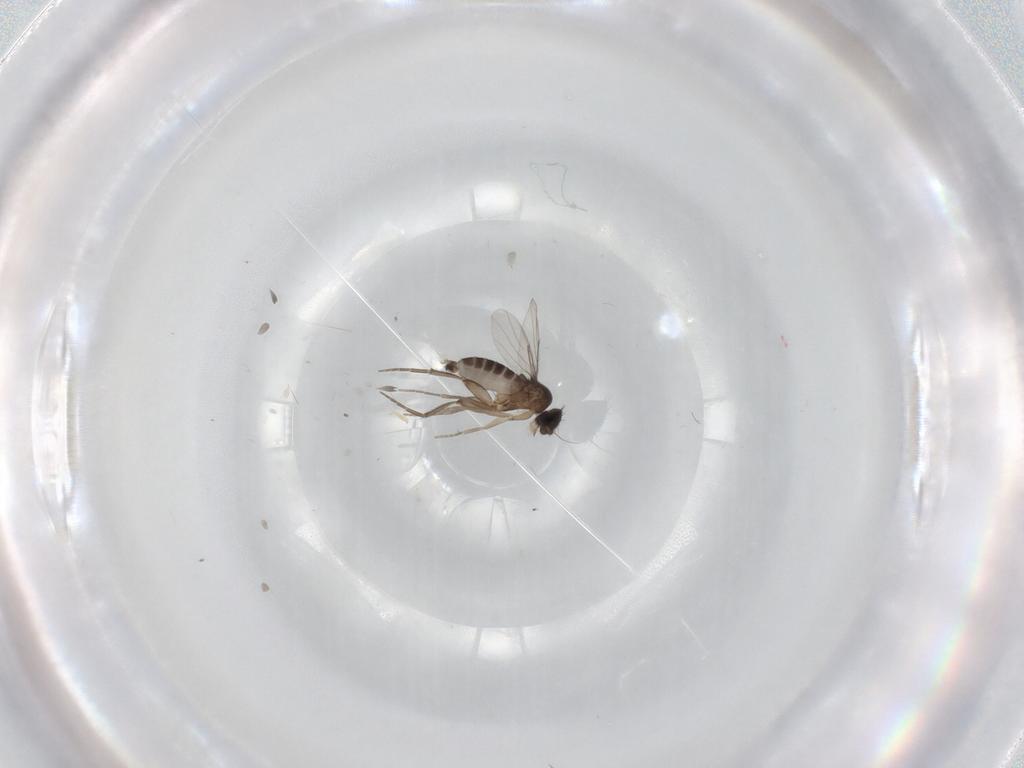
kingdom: Animalia
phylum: Arthropoda
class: Insecta
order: Diptera
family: Phoridae
